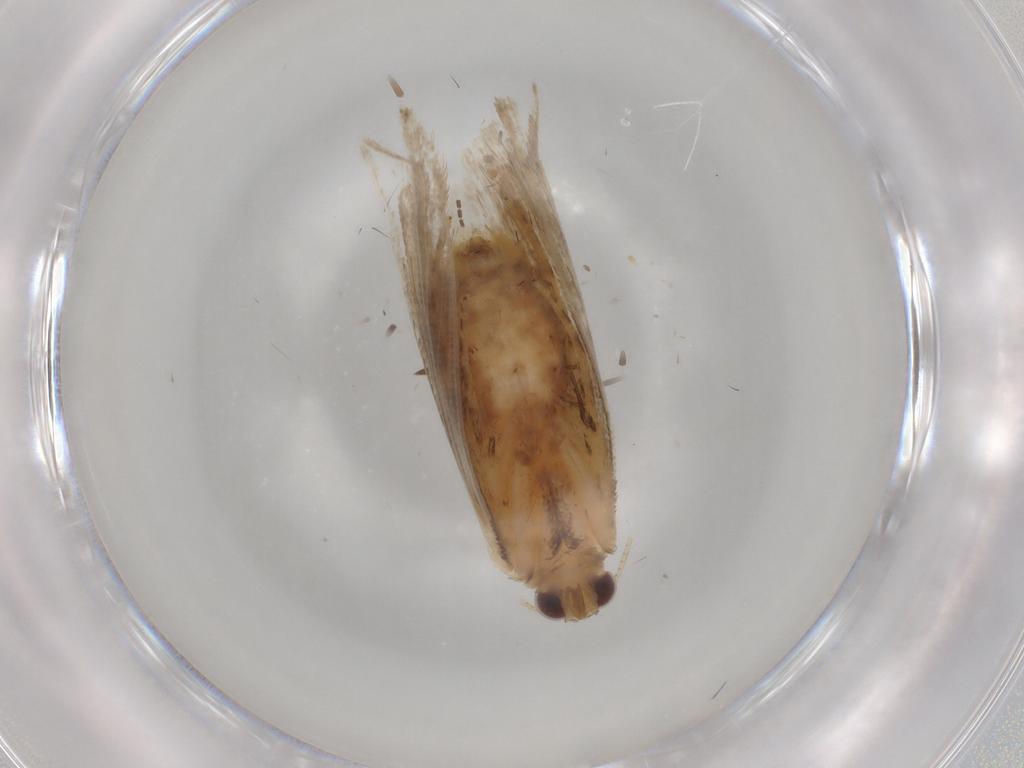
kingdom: Animalia
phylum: Arthropoda
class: Insecta
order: Lepidoptera
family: Erebidae
